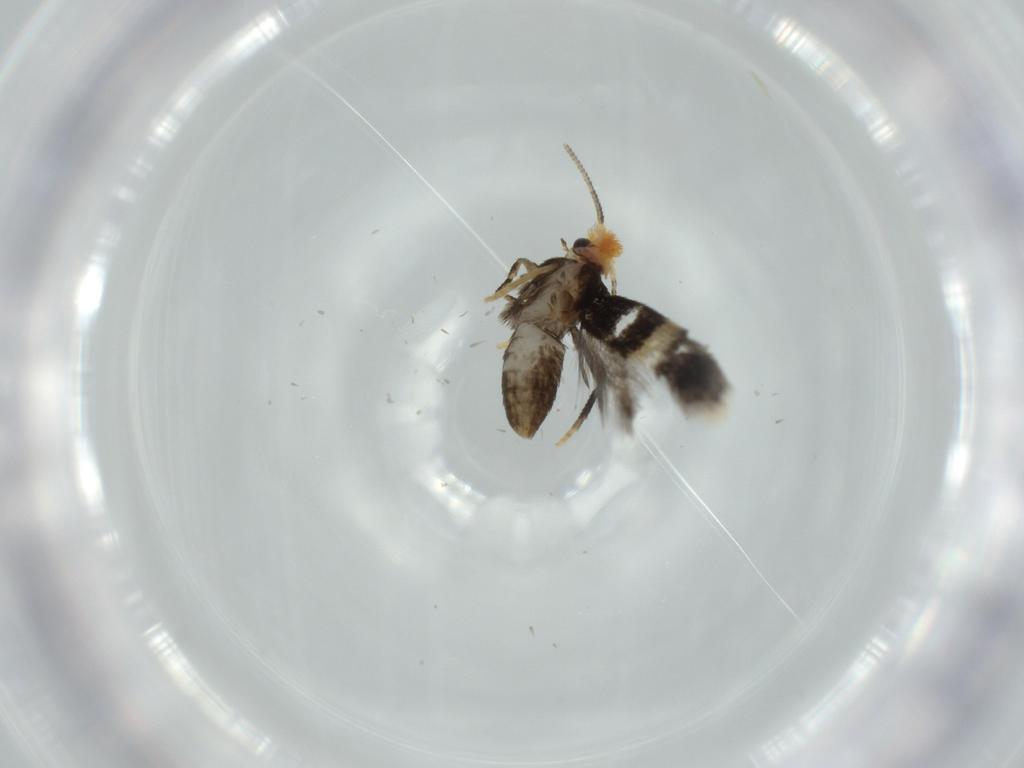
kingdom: Animalia
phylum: Arthropoda
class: Insecta
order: Lepidoptera
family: Nepticulidae
